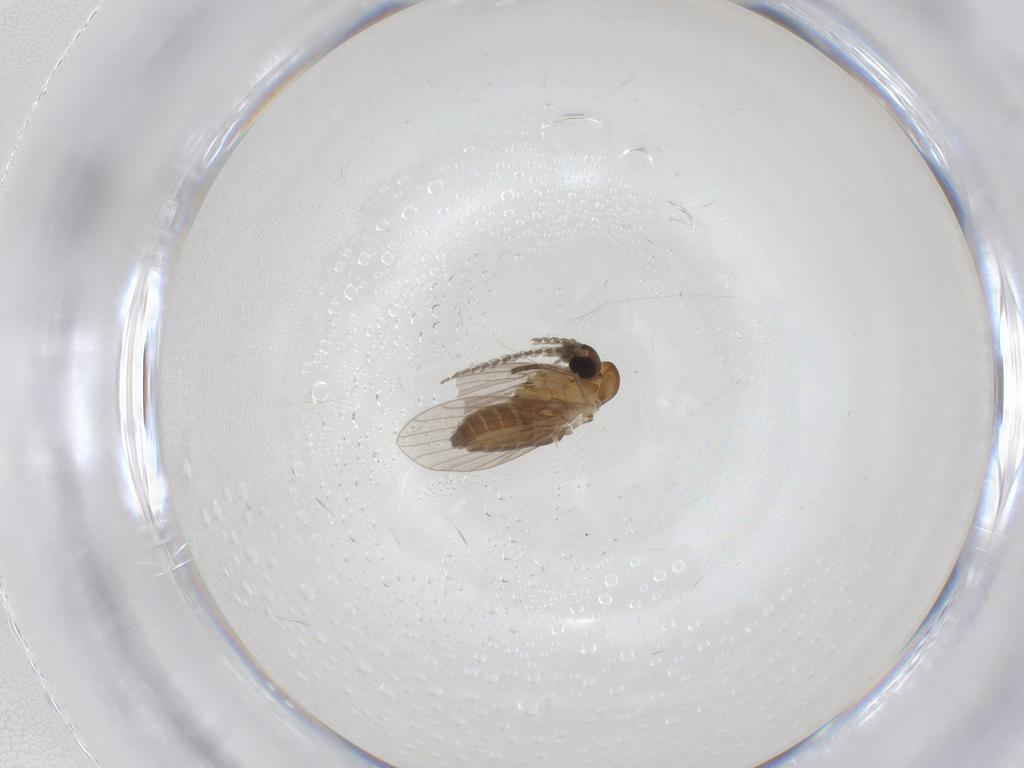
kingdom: Animalia
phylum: Arthropoda
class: Insecta
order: Diptera
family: Psychodidae
